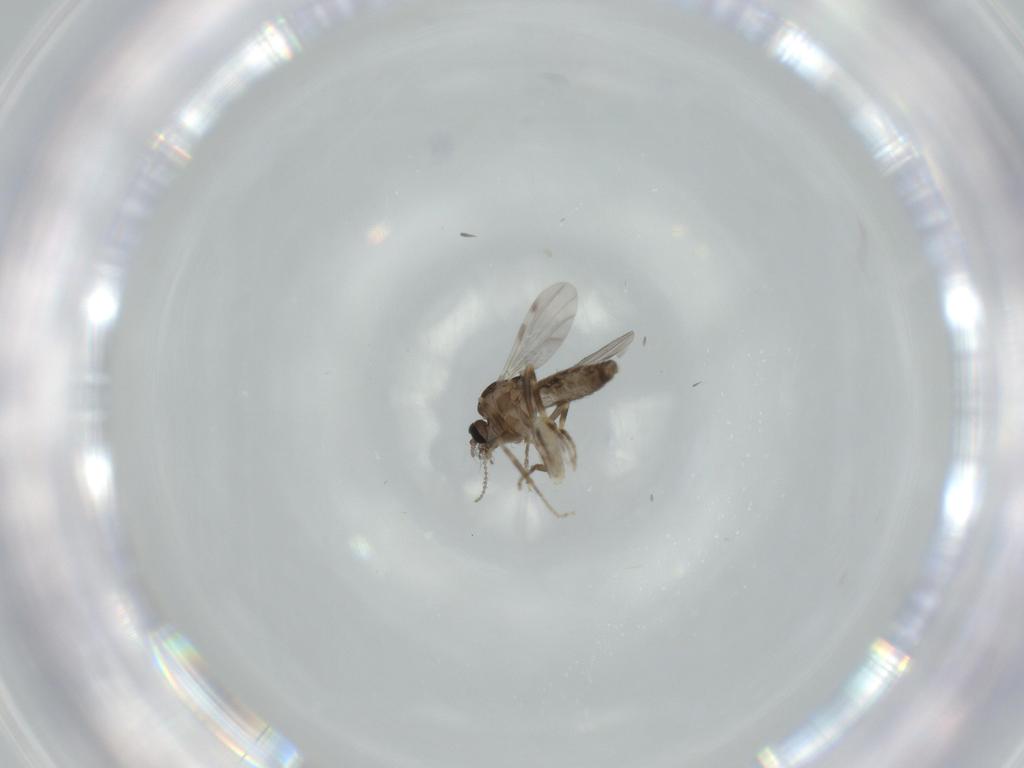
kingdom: Animalia
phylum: Arthropoda
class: Insecta
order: Diptera
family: Ceratopogonidae
